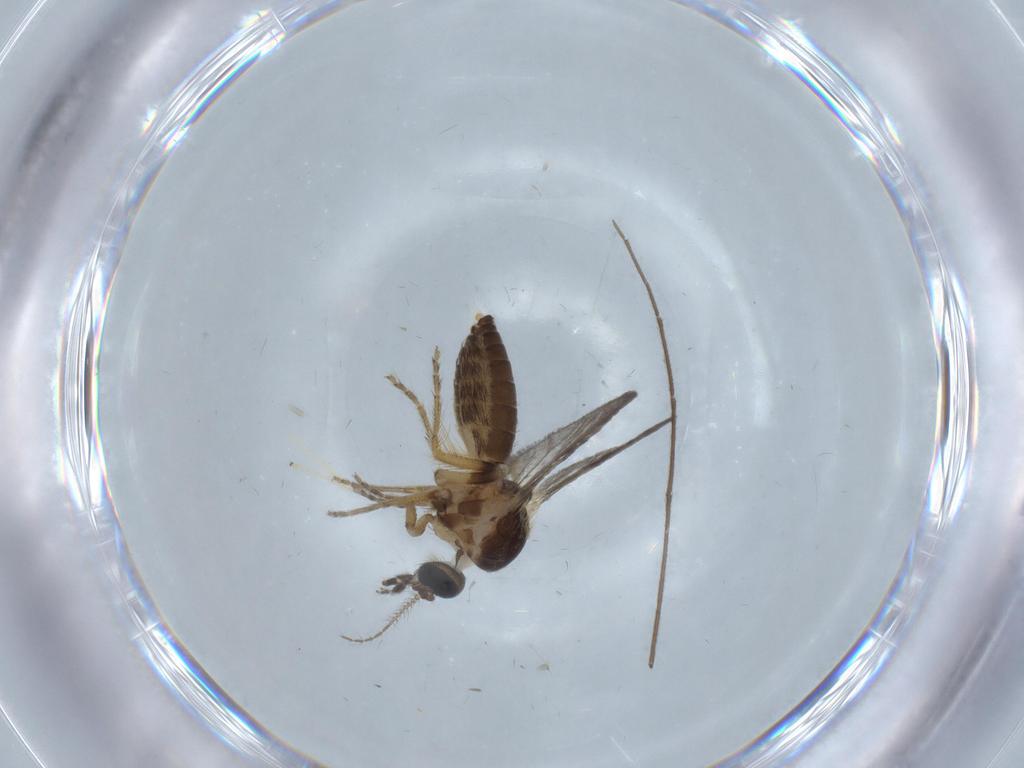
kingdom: Animalia
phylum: Arthropoda
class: Insecta
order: Diptera
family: Ceratopogonidae
